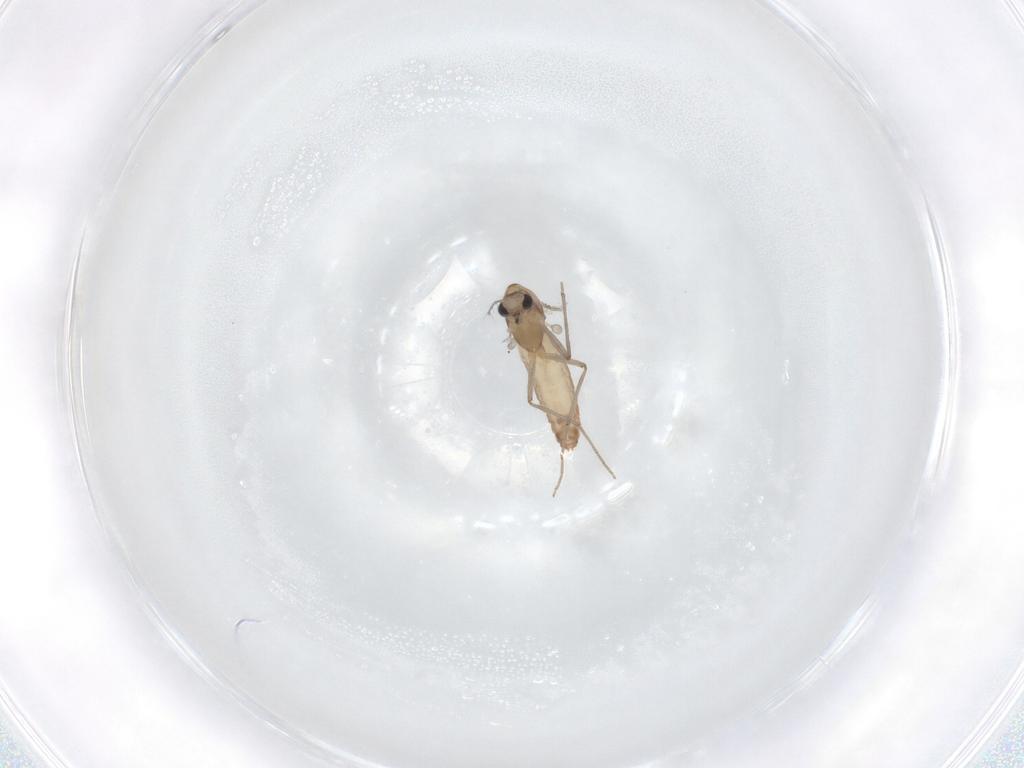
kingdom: Animalia
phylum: Arthropoda
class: Insecta
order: Diptera
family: Chironomidae
